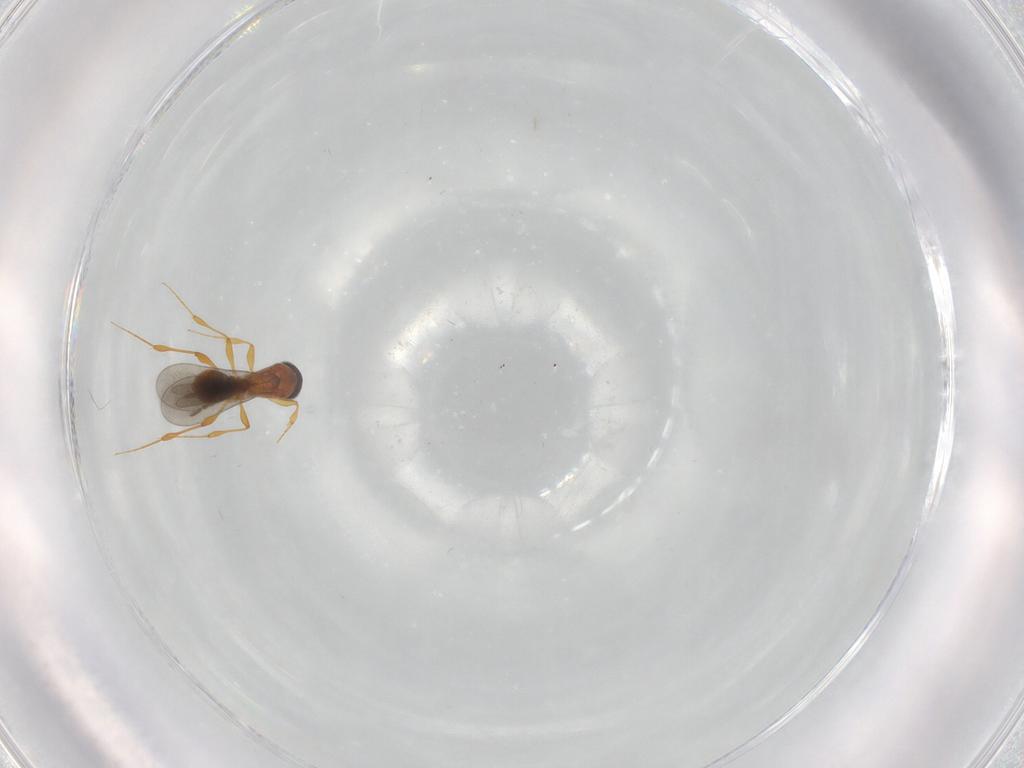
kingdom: Animalia
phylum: Arthropoda
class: Insecta
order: Hymenoptera
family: Platygastridae
